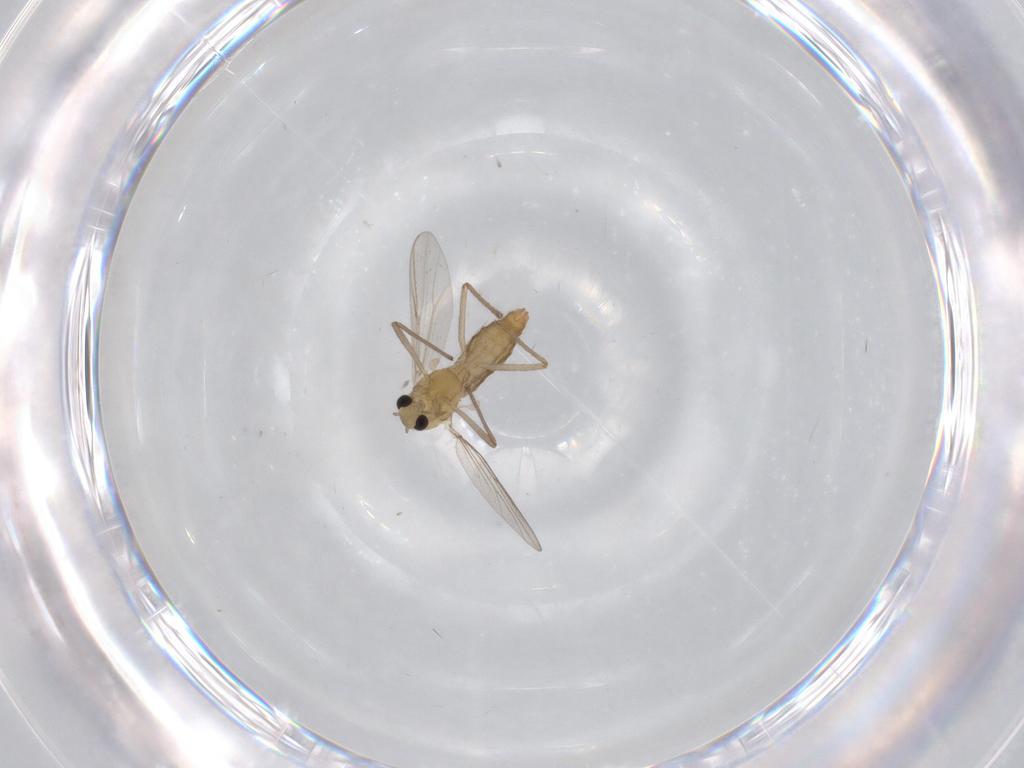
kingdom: Animalia
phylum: Arthropoda
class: Insecta
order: Diptera
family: Chironomidae
